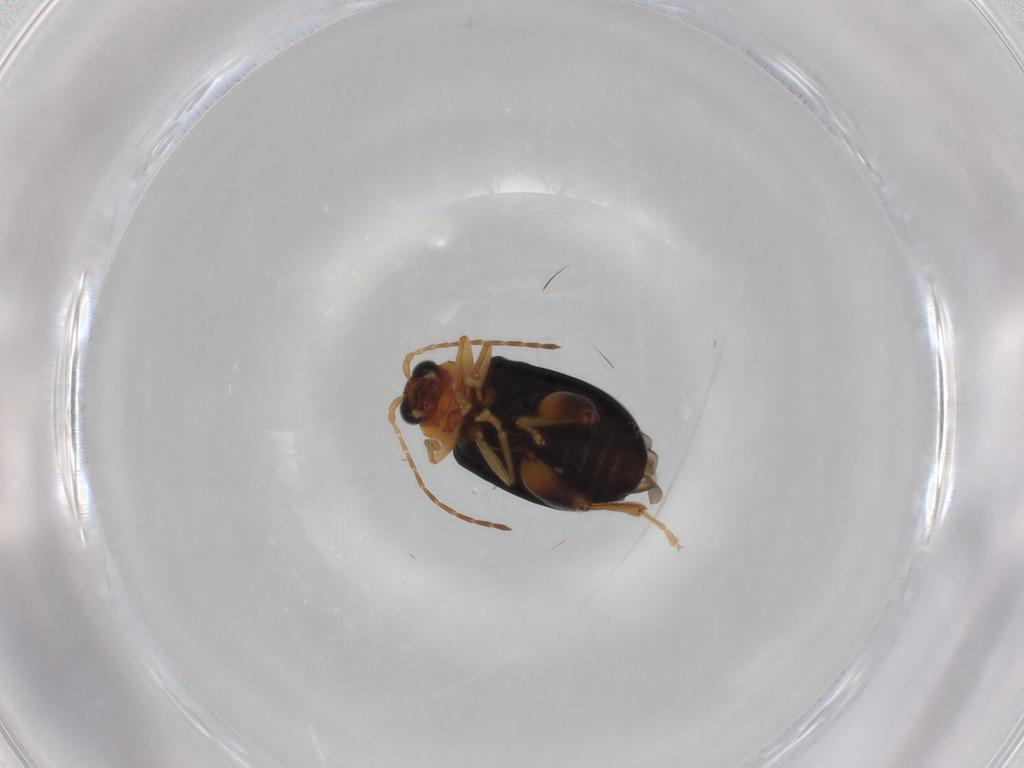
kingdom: Animalia
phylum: Arthropoda
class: Insecta
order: Coleoptera
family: Chrysomelidae
